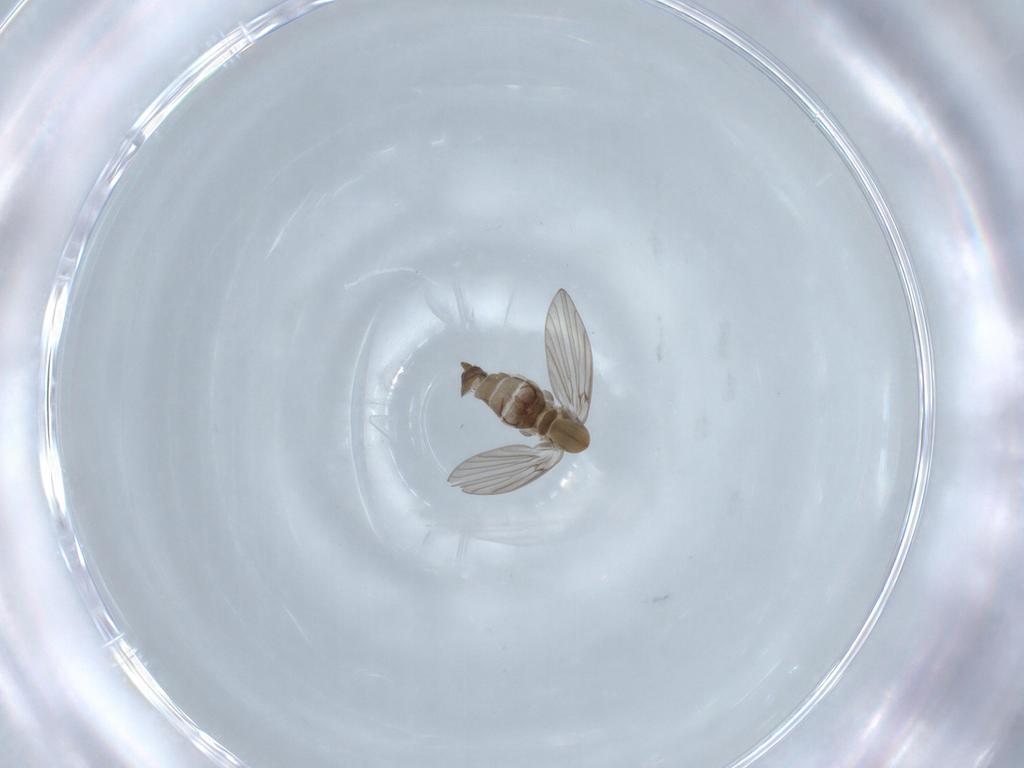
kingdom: Animalia
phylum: Arthropoda
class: Insecta
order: Diptera
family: Psychodidae
